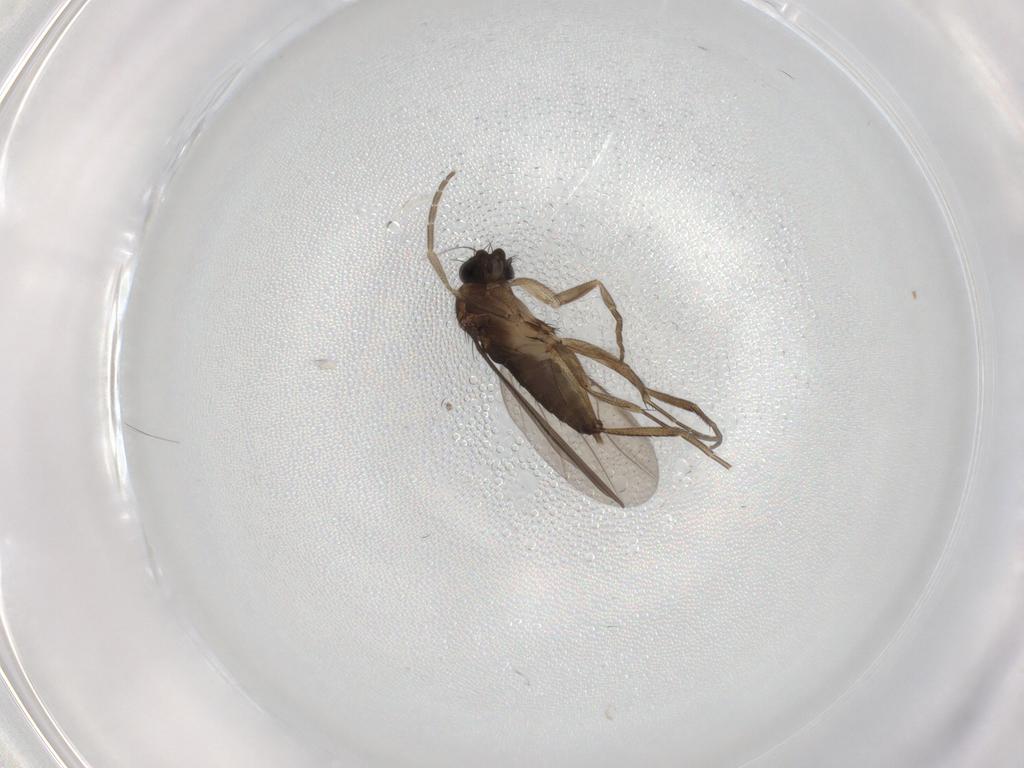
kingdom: Animalia
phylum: Arthropoda
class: Insecta
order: Diptera
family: Phoridae
